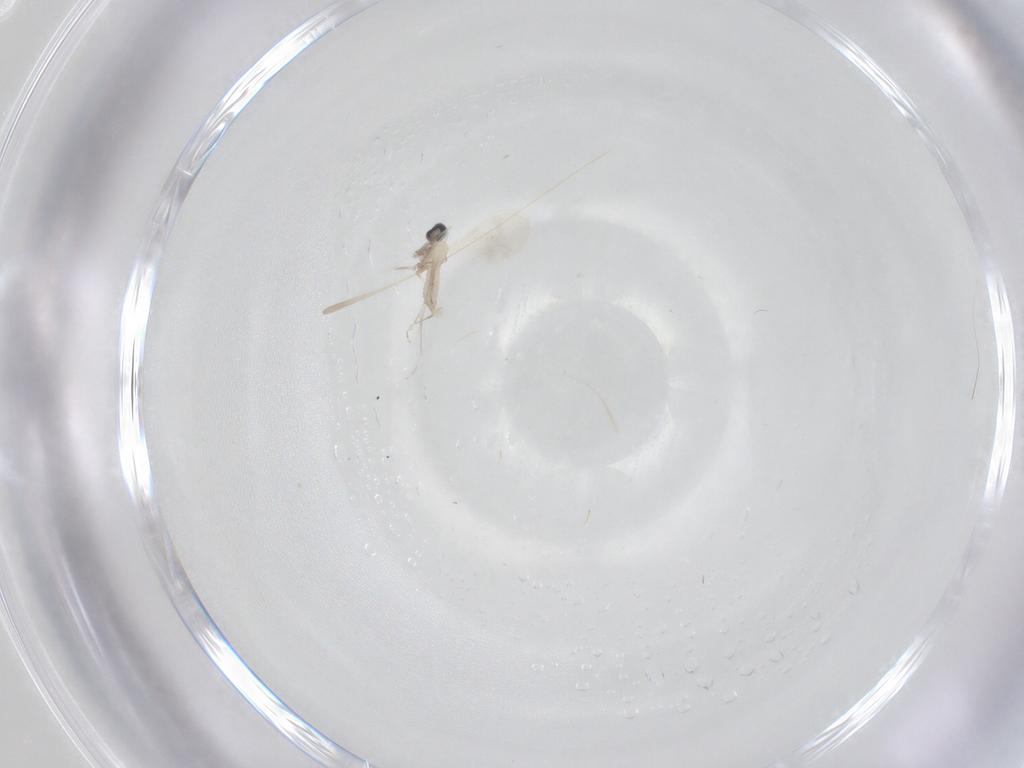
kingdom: Animalia
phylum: Arthropoda
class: Insecta
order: Diptera
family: Cecidomyiidae
